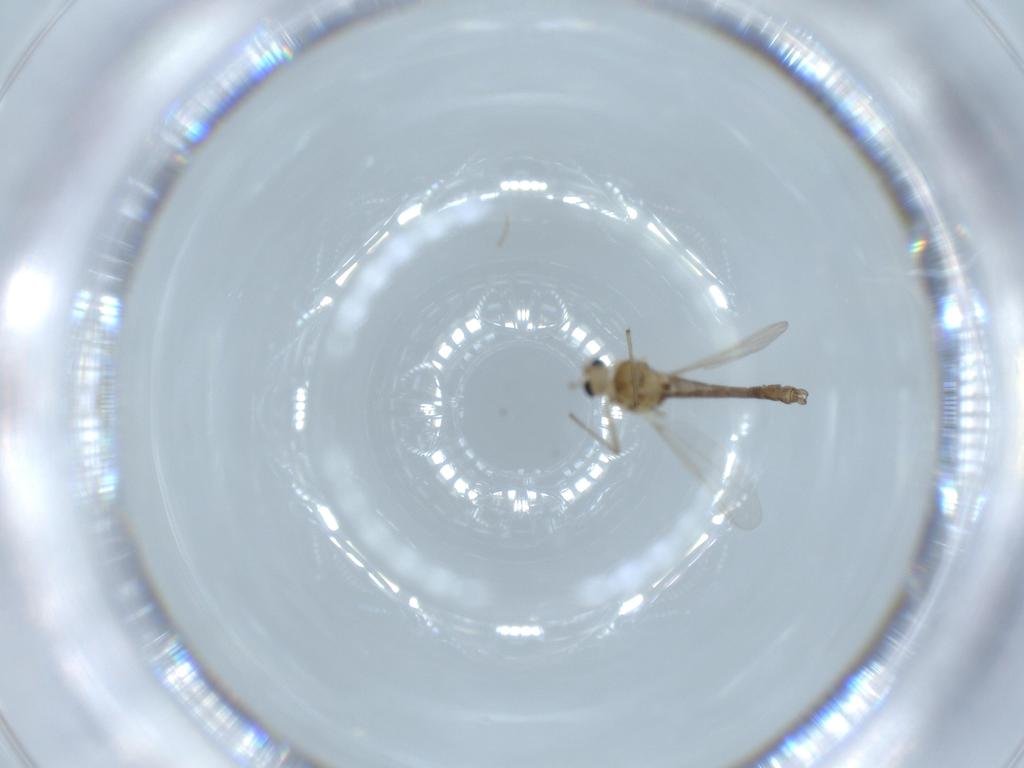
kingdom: Animalia
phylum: Arthropoda
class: Insecta
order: Diptera
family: Chironomidae
